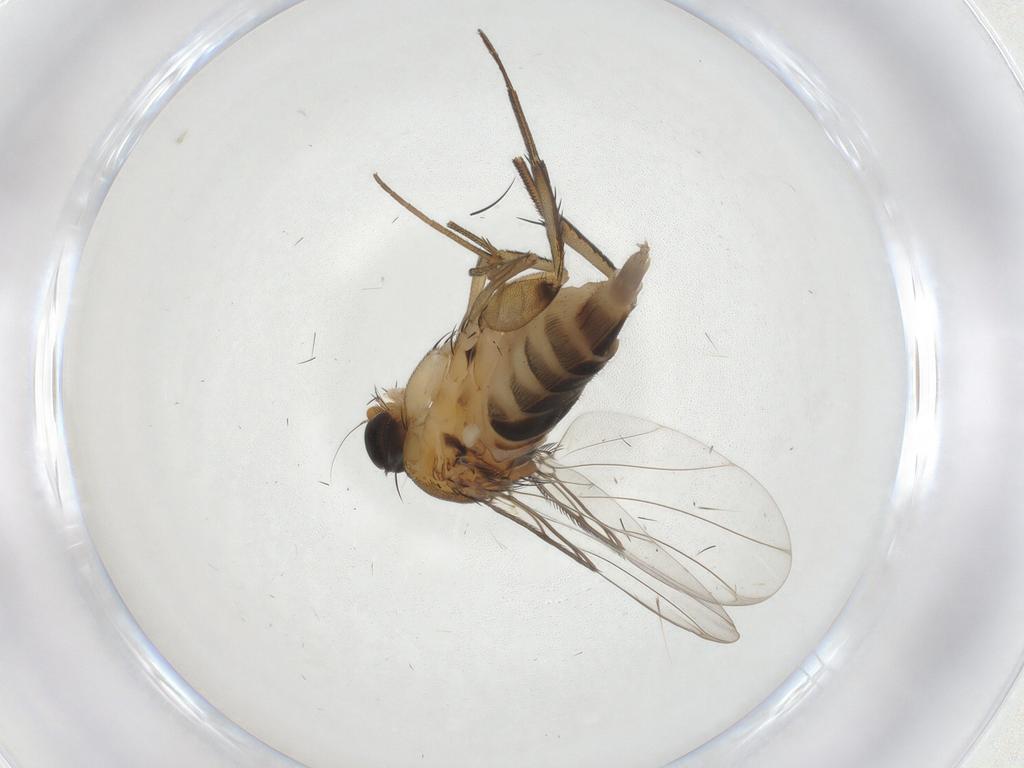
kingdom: Animalia
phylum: Arthropoda
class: Insecta
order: Diptera
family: Phoridae
